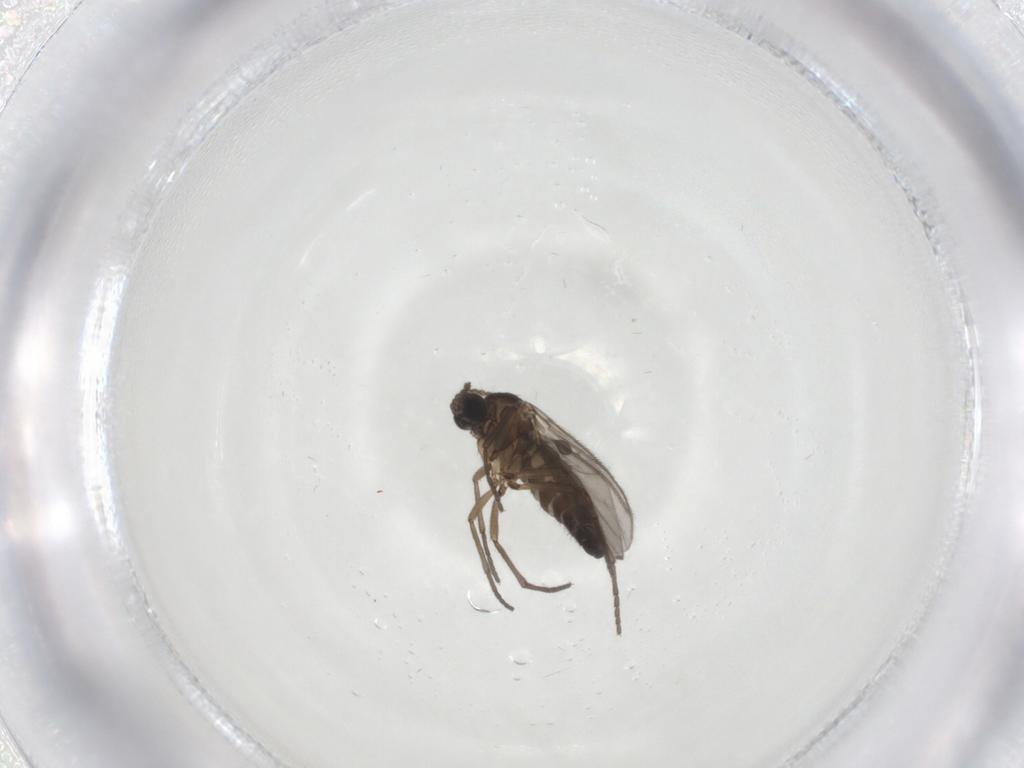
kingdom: Animalia
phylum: Arthropoda
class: Insecta
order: Diptera
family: Sciaridae
